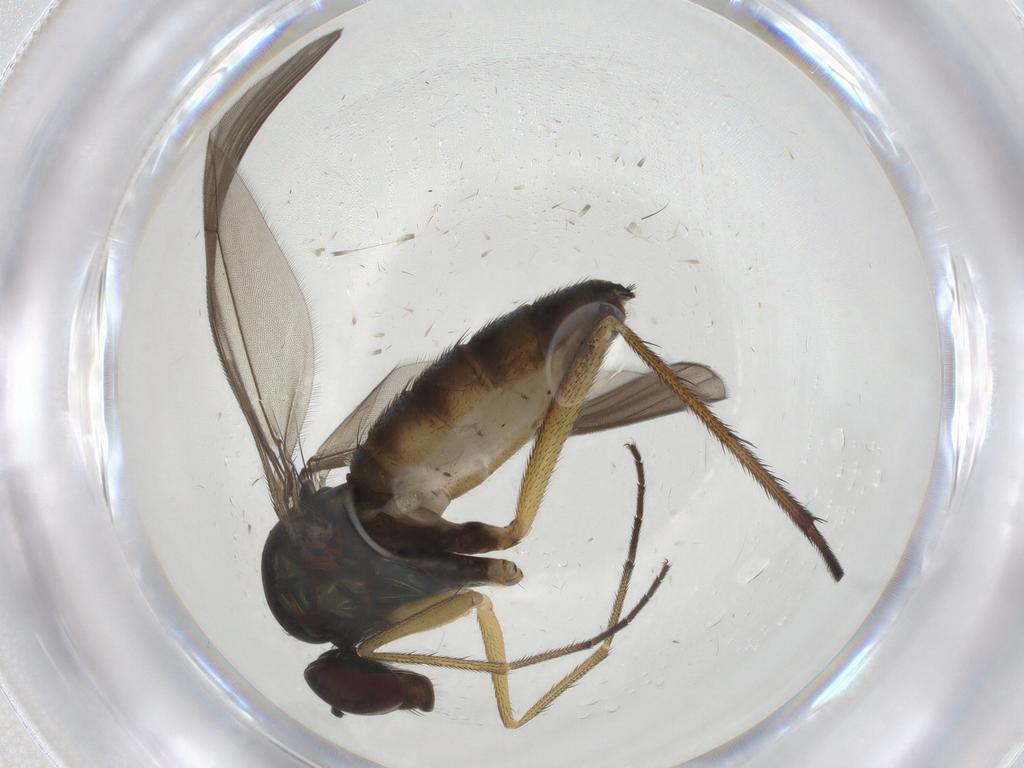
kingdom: Animalia
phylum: Arthropoda
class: Insecta
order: Diptera
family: Dolichopodidae
